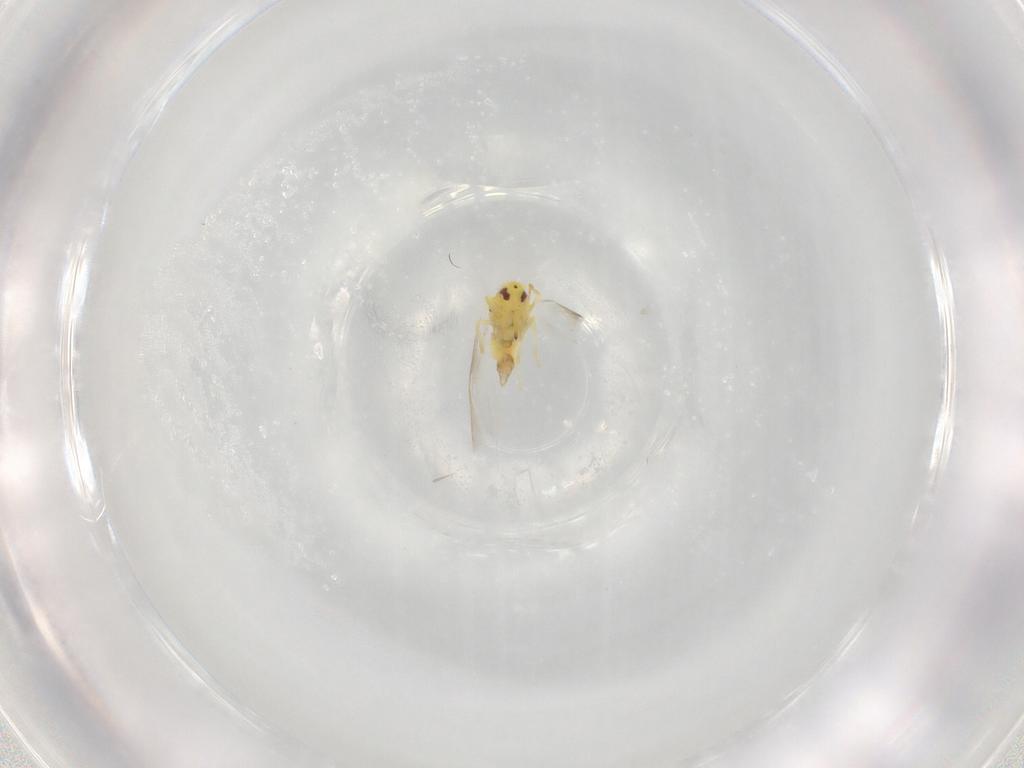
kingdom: Animalia
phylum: Arthropoda
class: Insecta
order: Hemiptera
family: Aleyrodidae
